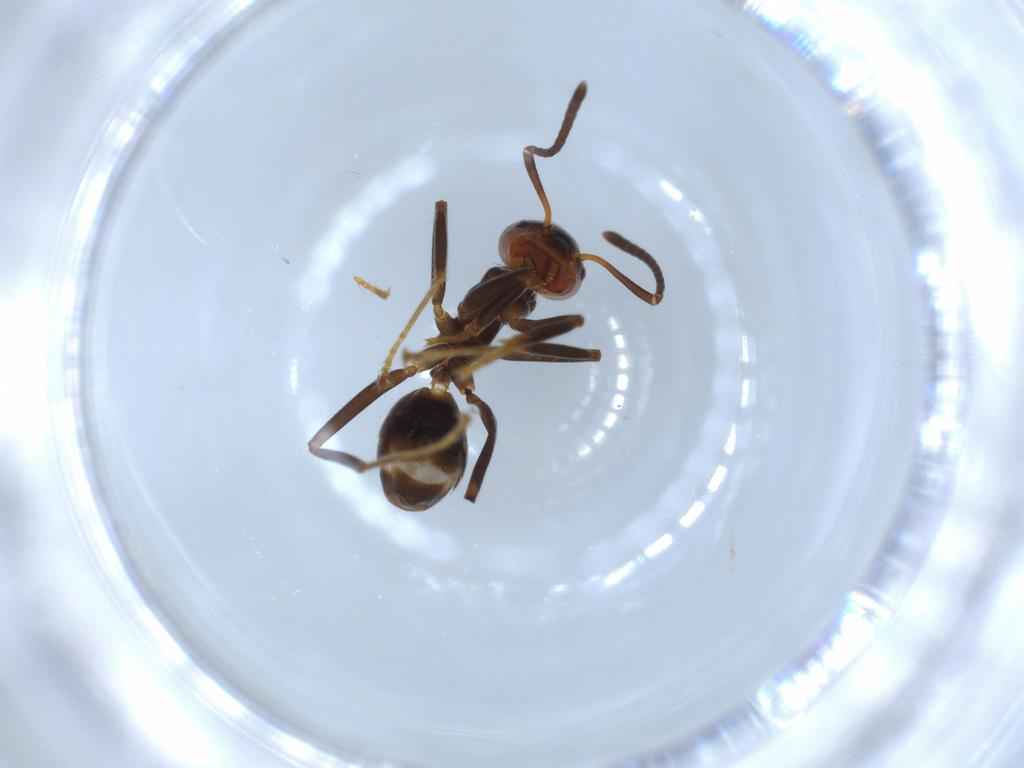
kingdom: Animalia
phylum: Arthropoda
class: Insecta
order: Hymenoptera
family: Formicidae
